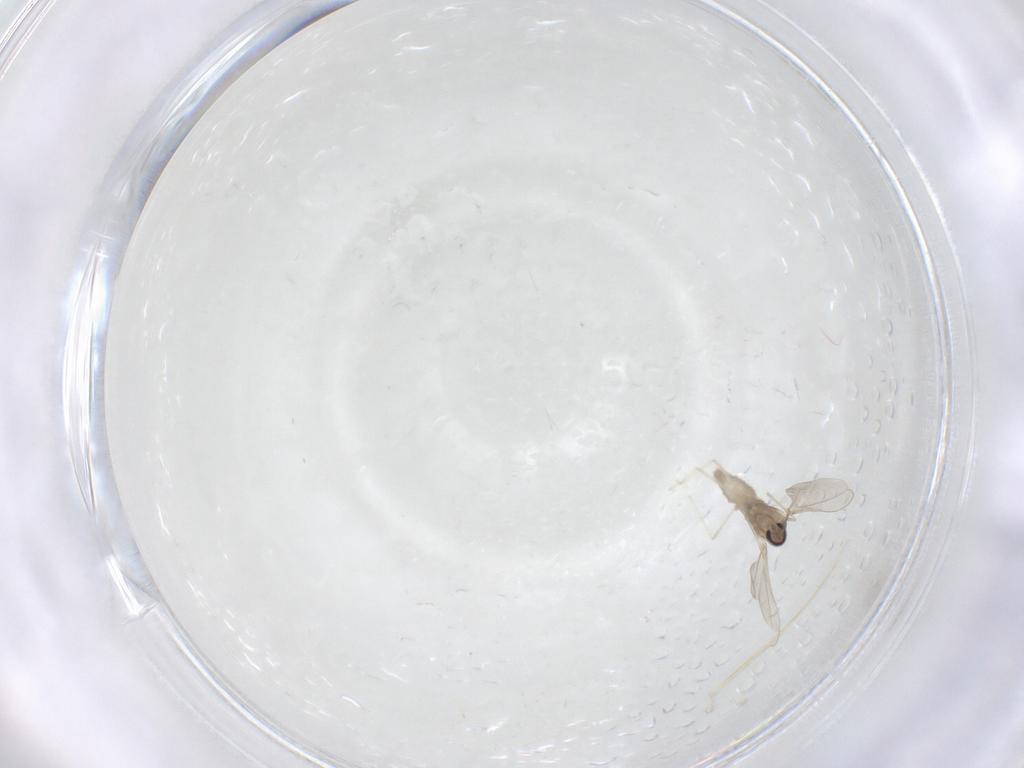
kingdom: Animalia
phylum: Arthropoda
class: Insecta
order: Diptera
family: Cecidomyiidae
